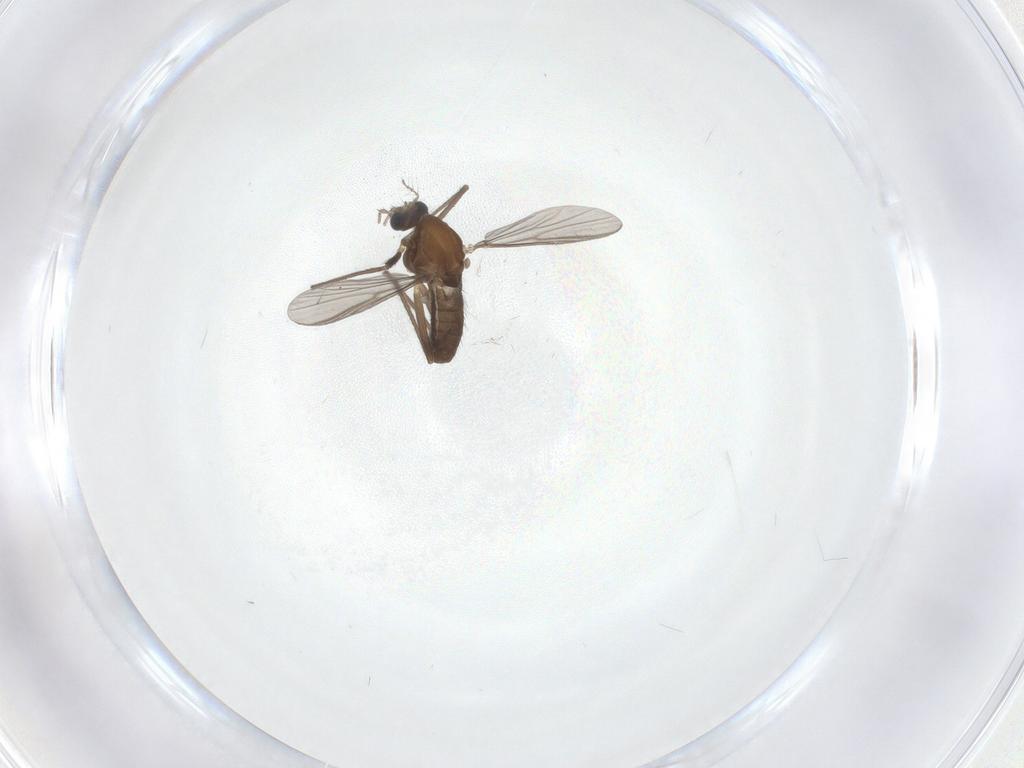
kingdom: Animalia
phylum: Arthropoda
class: Insecta
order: Diptera
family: Chironomidae
